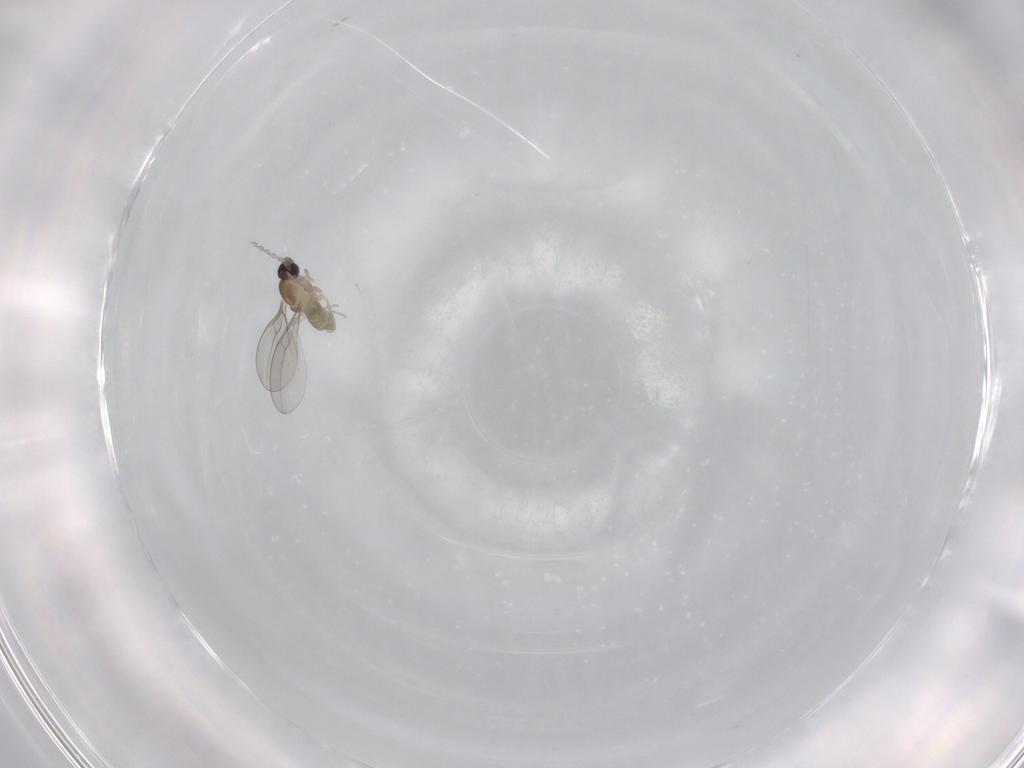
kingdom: Animalia
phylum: Arthropoda
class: Insecta
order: Diptera
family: Cecidomyiidae
